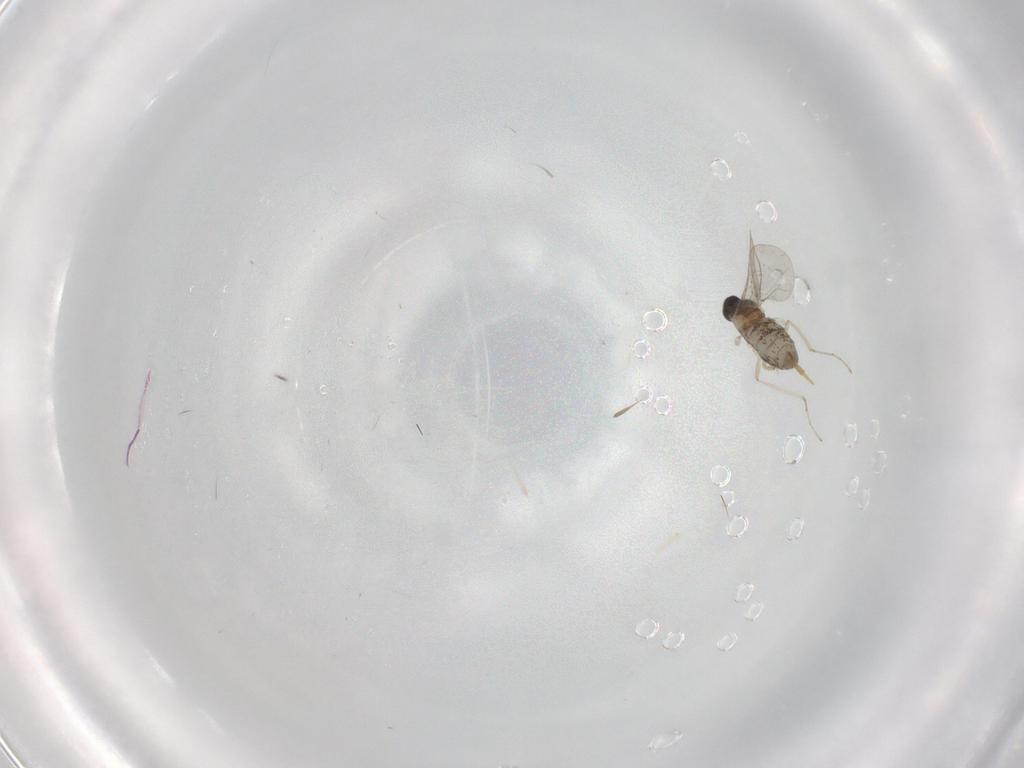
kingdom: Animalia
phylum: Arthropoda
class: Insecta
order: Diptera
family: Cecidomyiidae
